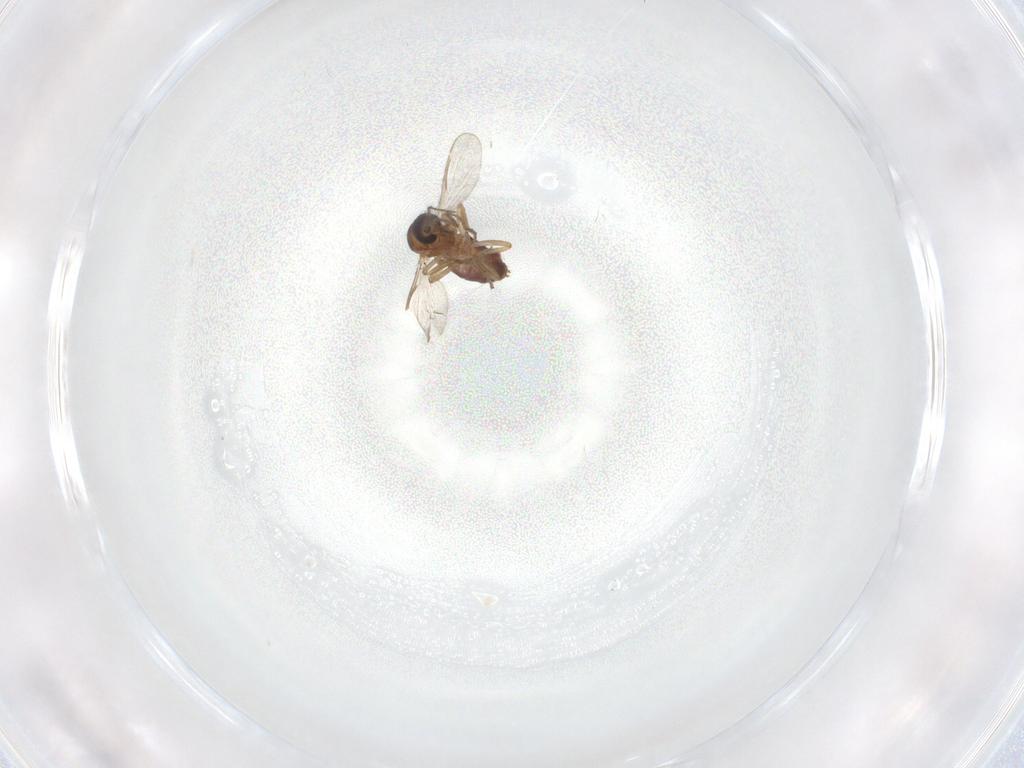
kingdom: Animalia
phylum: Arthropoda
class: Insecta
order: Diptera
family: Ceratopogonidae
